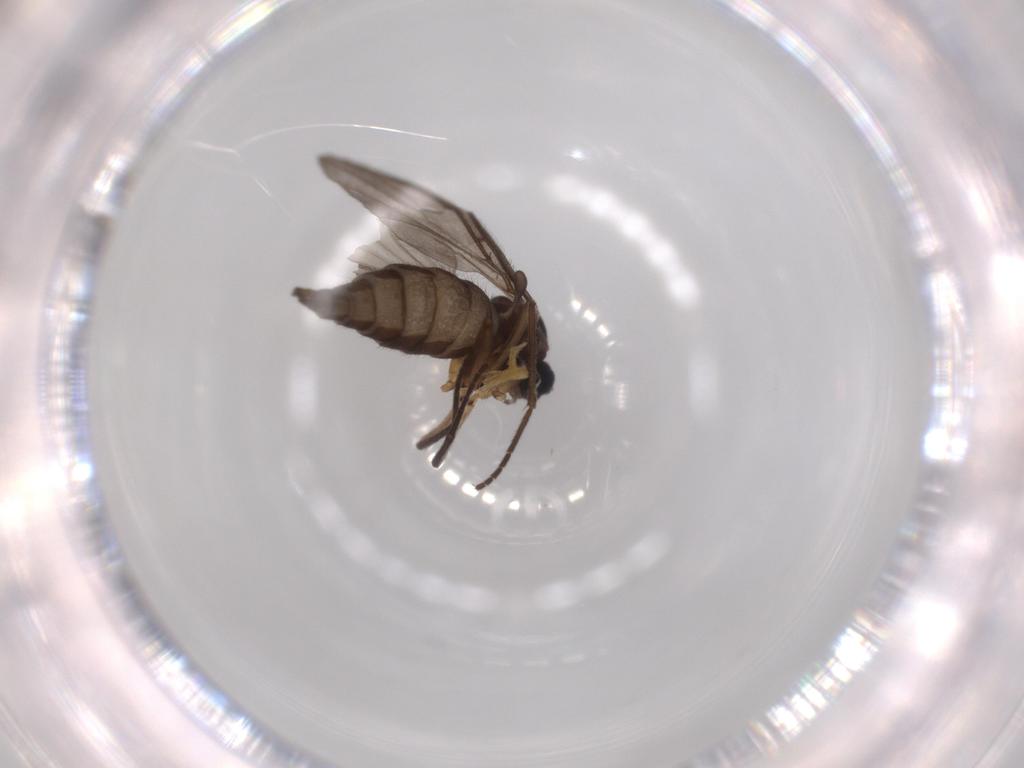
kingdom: Animalia
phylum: Arthropoda
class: Insecta
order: Diptera
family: Sciaridae
